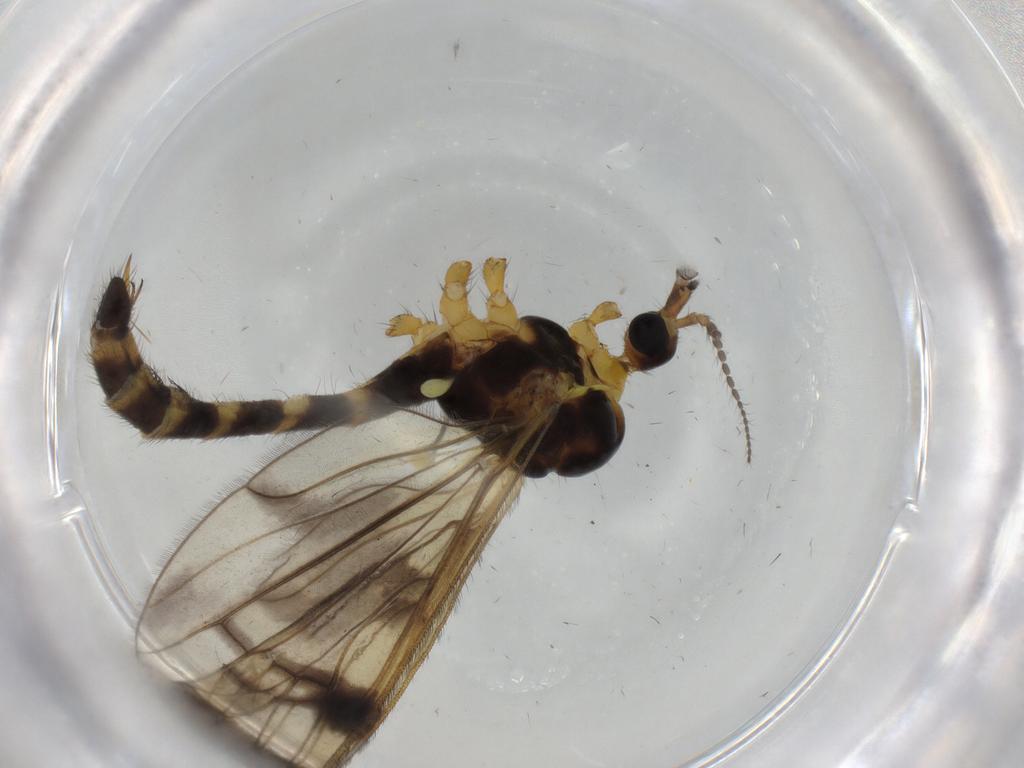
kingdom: Animalia
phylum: Arthropoda
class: Insecta
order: Diptera
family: Limoniidae
